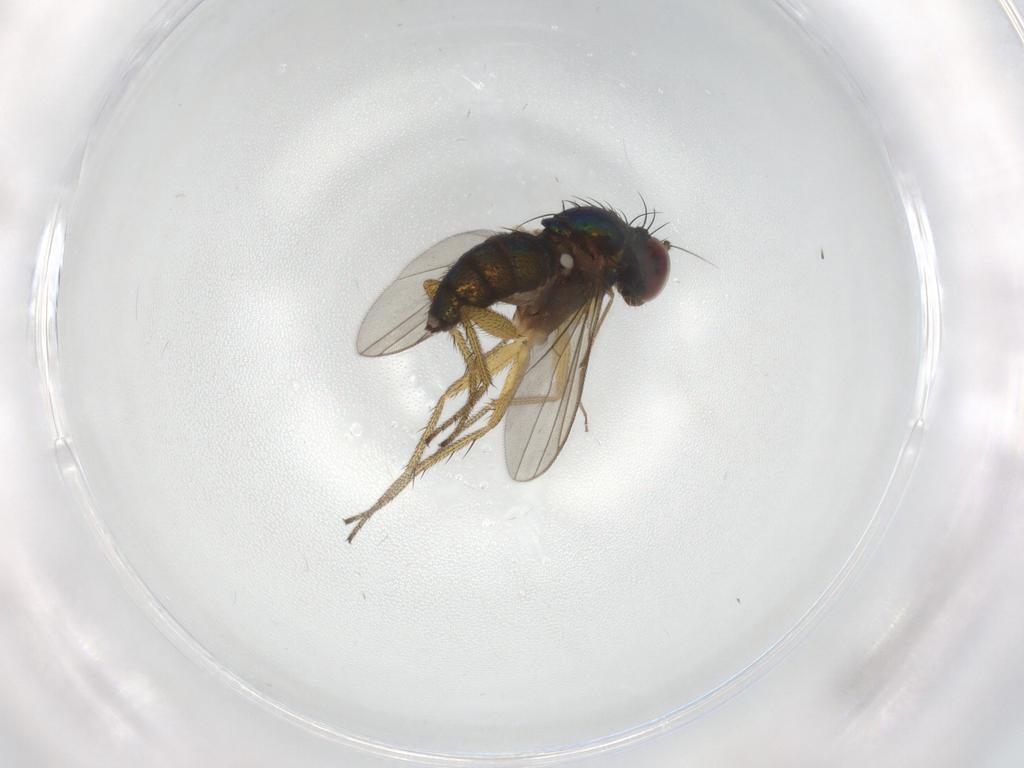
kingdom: Animalia
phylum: Arthropoda
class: Insecta
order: Diptera
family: Chironomidae
